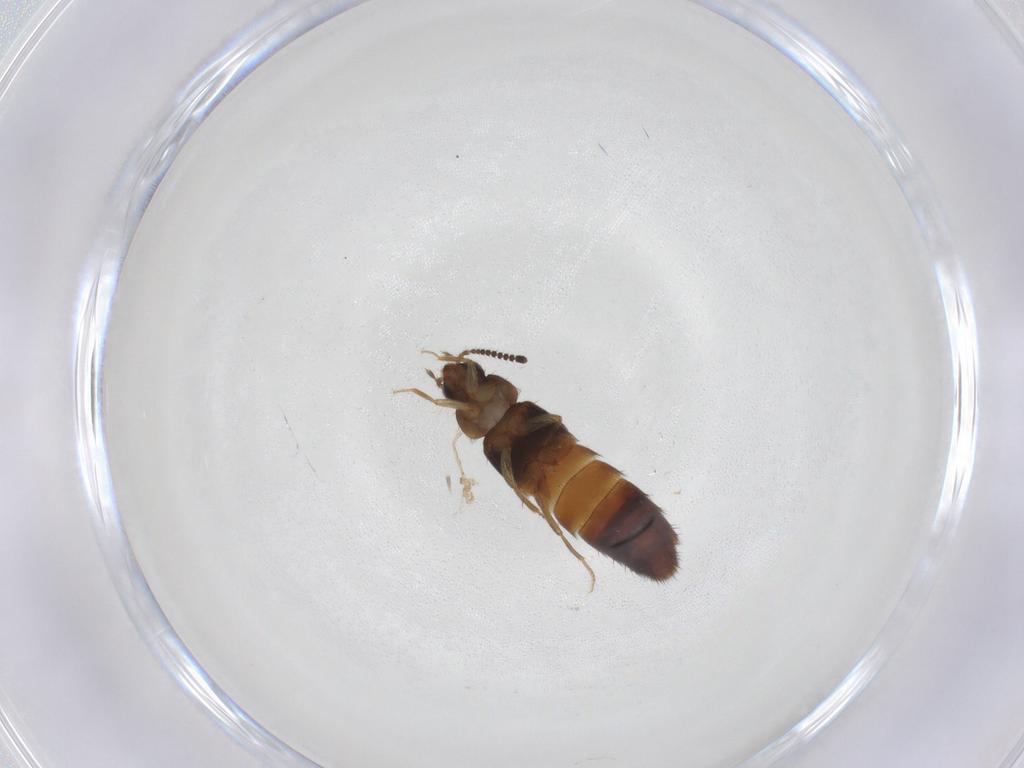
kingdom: Animalia
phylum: Arthropoda
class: Insecta
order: Coleoptera
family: Staphylinidae
